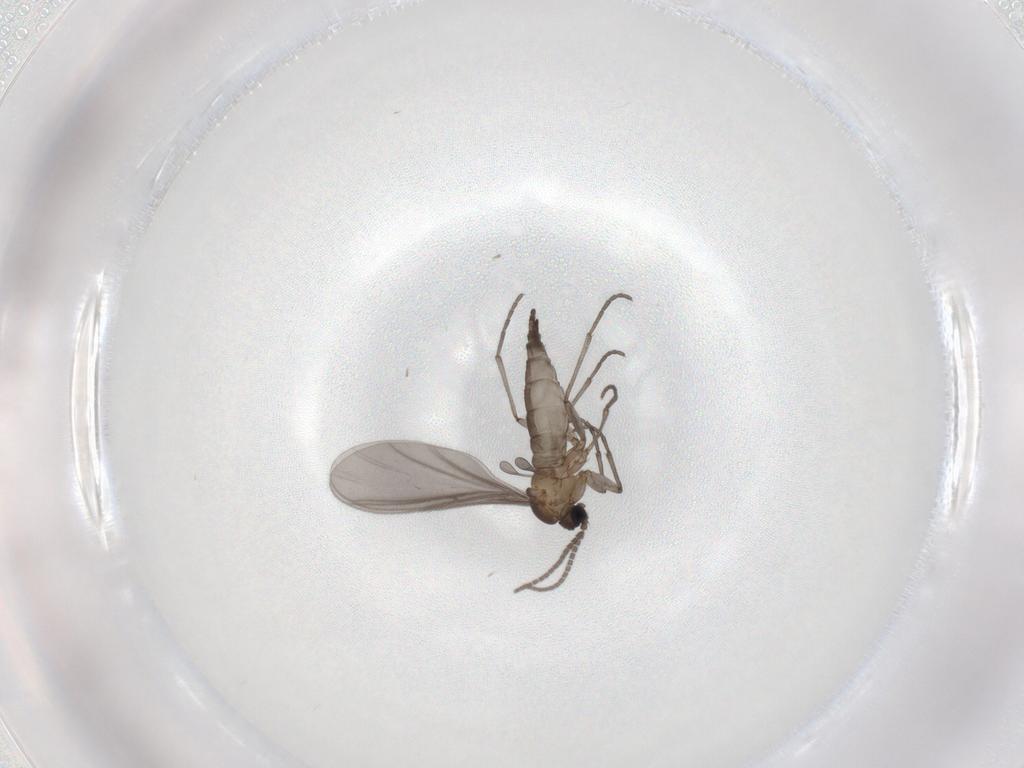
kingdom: Animalia
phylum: Arthropoda
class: Insecta
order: Diptera
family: Sciaridae
